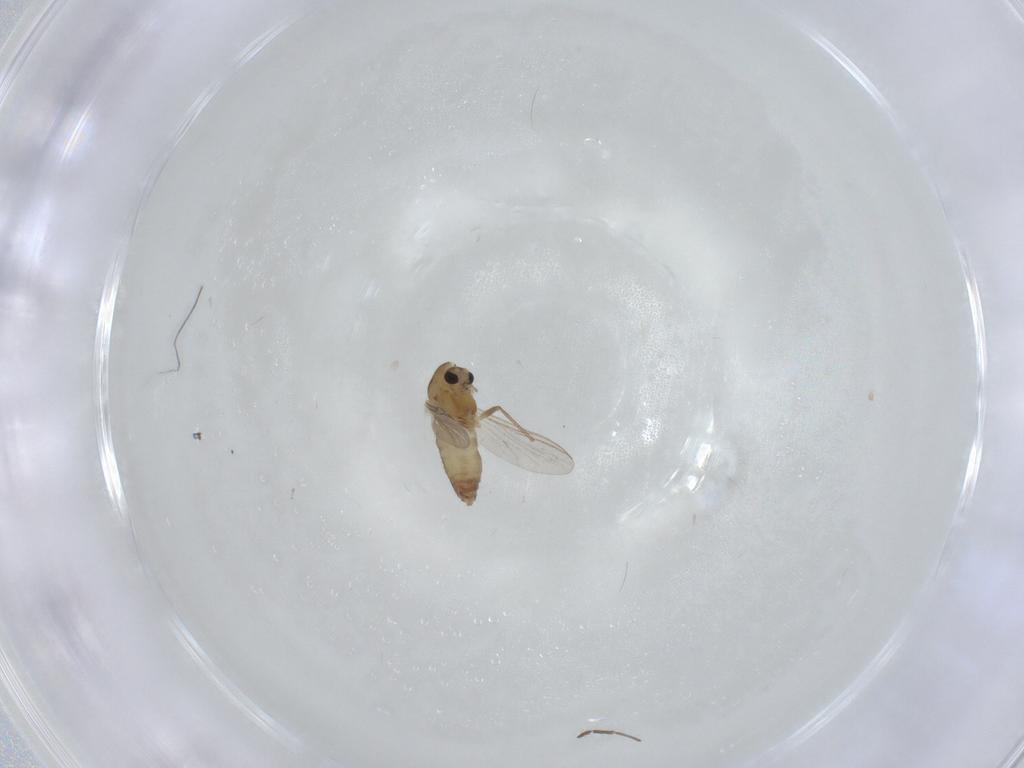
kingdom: Animalia
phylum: Arthropoda
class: Insecta
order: Diptera
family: Chironomidae
